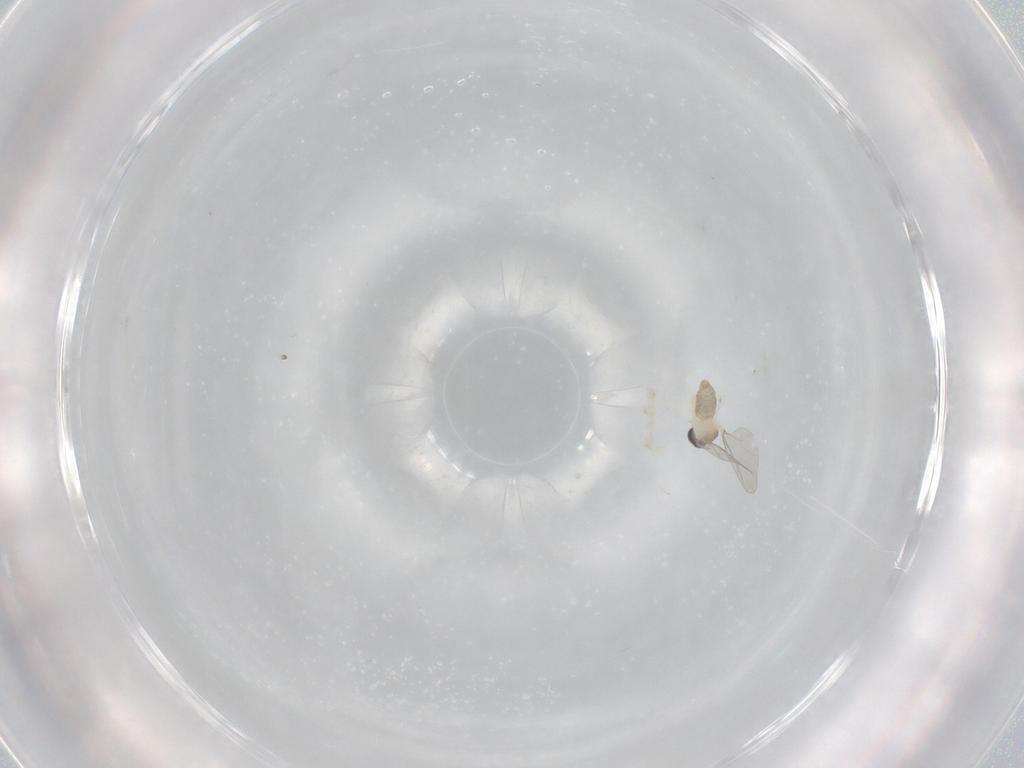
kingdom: Animalia
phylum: Arthropoda
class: Insecta
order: Diptera
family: Cecidomyiidae
